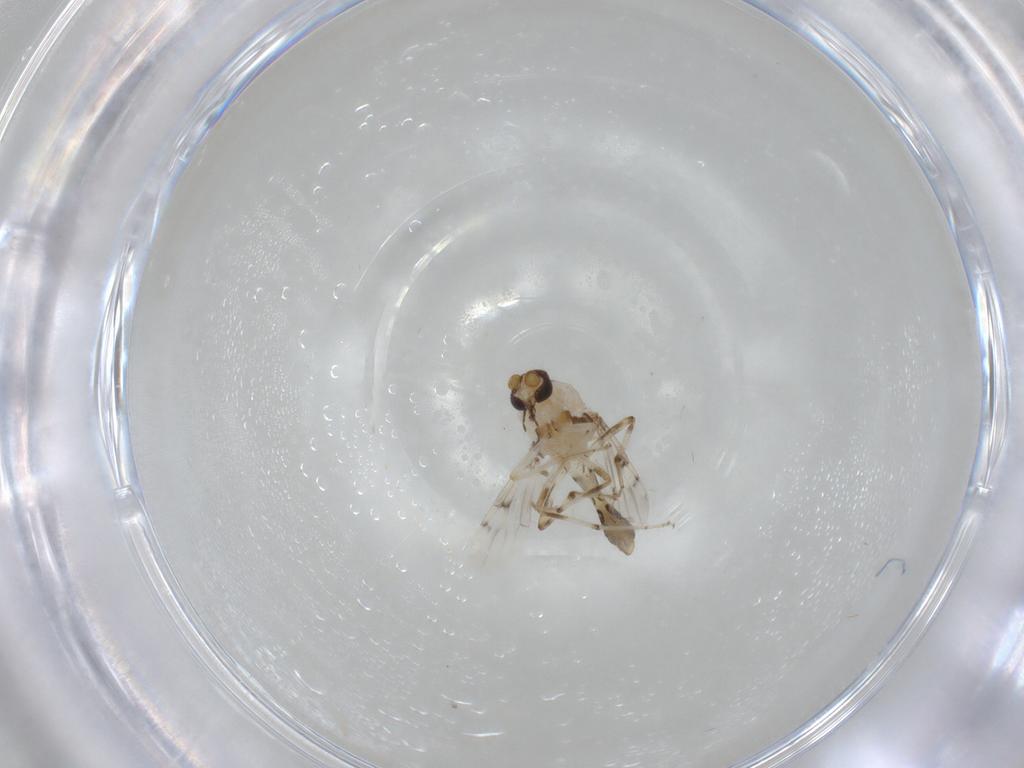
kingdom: Animalia
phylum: Arthropoda
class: Insecta
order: Diptera
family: Ceratopogonidae
